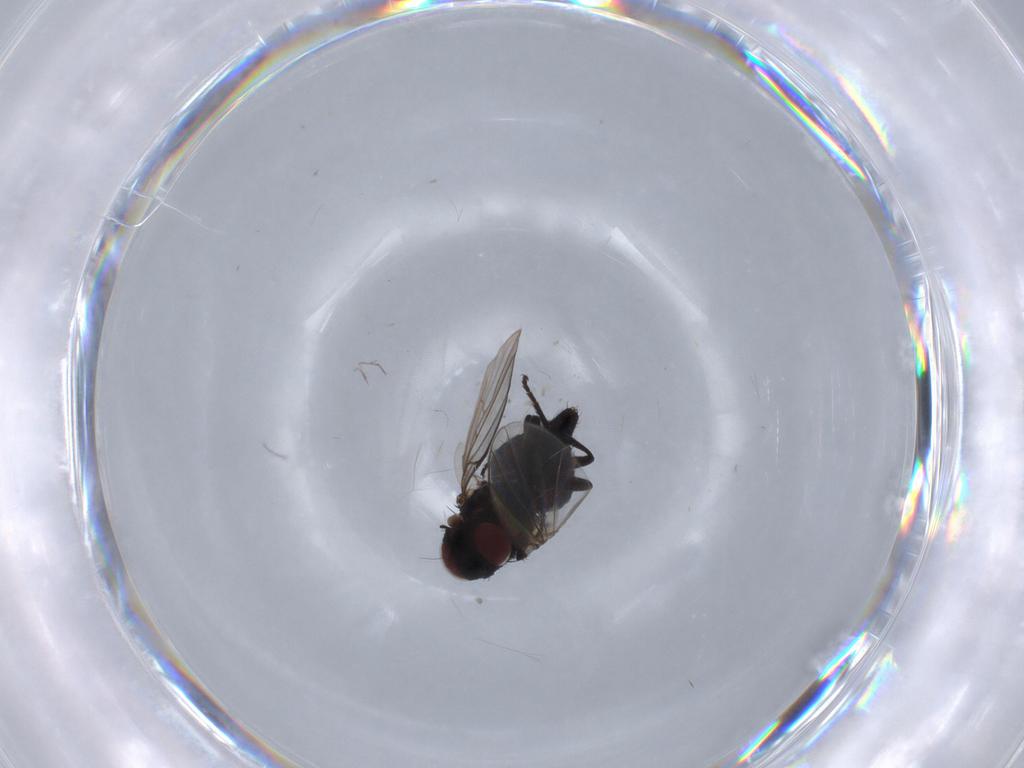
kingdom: Animalia
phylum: Arthropoda
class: Insecta
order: Diptera
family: Agromyzidae
